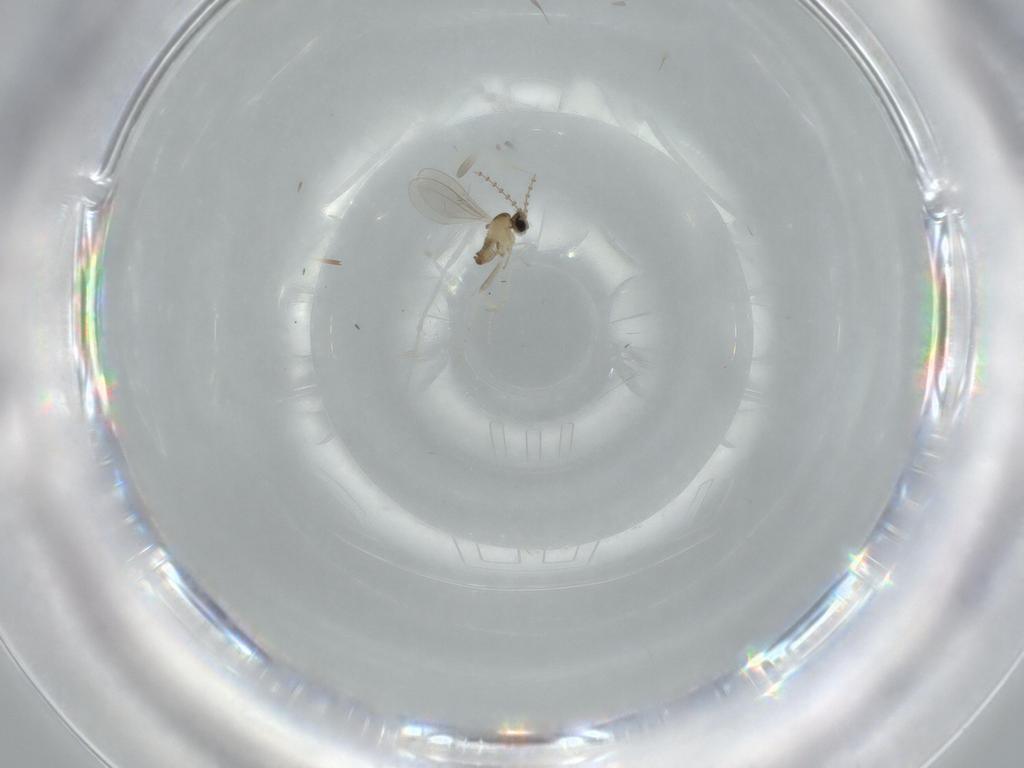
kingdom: Animalia
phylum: Arthropoda
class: Insecta
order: Diptera
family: Cecidomyiidae
